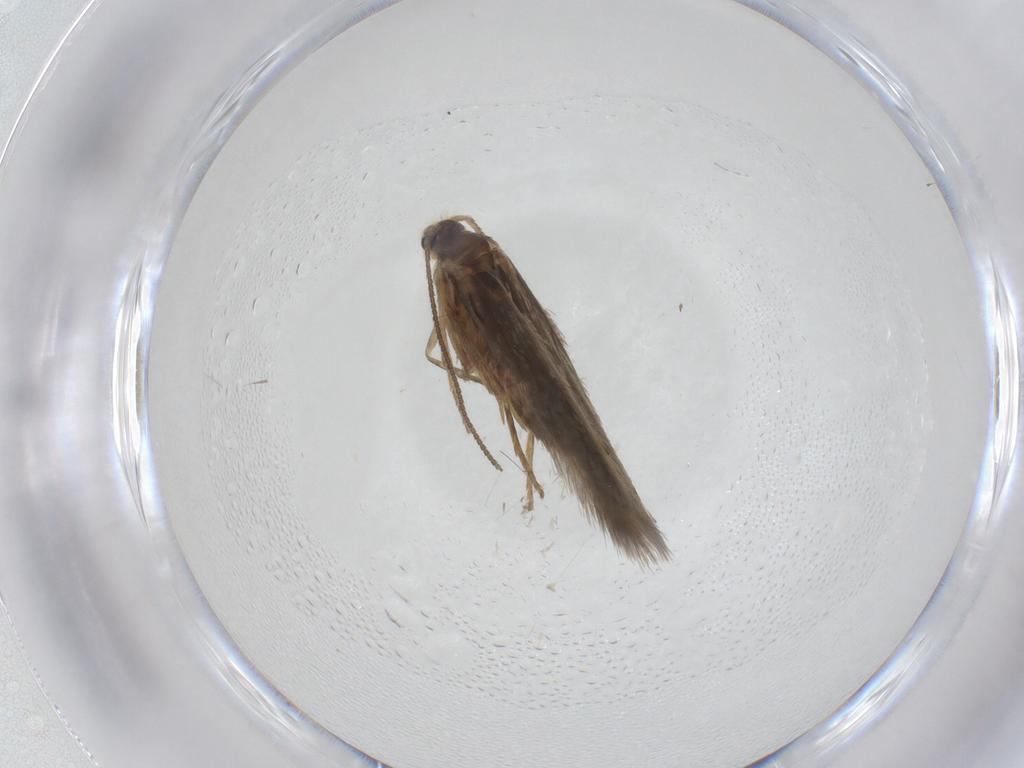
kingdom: Animalia
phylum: Arthropoda
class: Insecta
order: Lepidoptera
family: Nepticulidae
